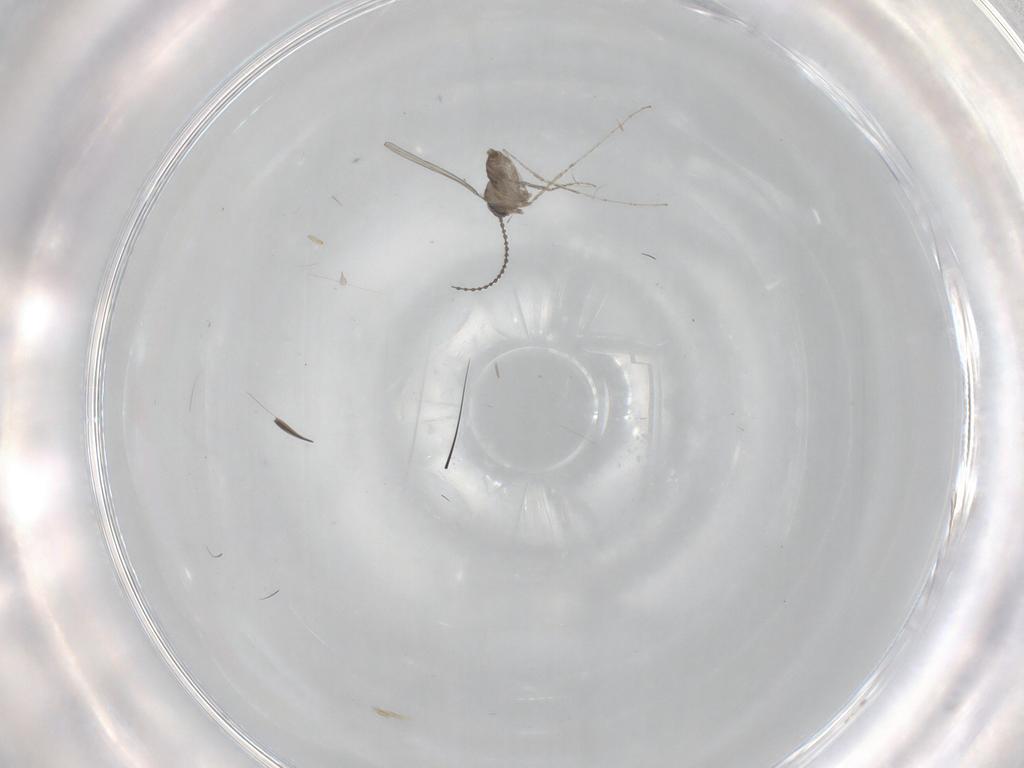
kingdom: Animalia
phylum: Arthropoda
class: Insecta
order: Diptera
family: Cecidomyiidae
